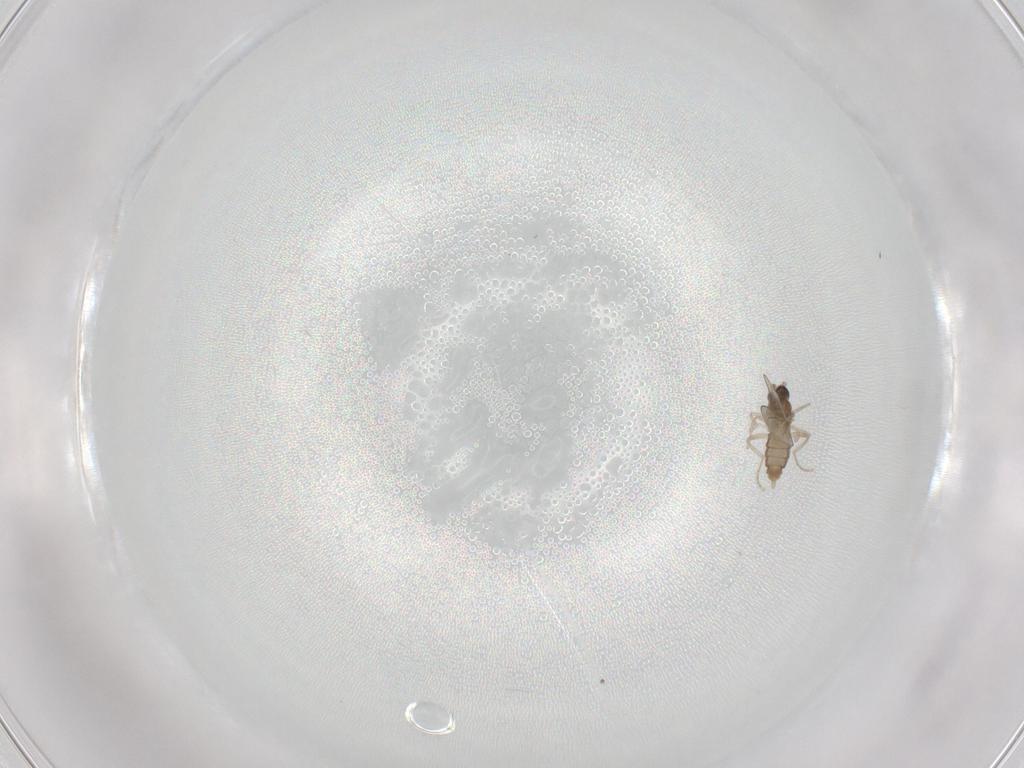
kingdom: Animalia
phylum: Arthropoda
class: Insecta
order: Diptera
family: Cecidomyiidae
